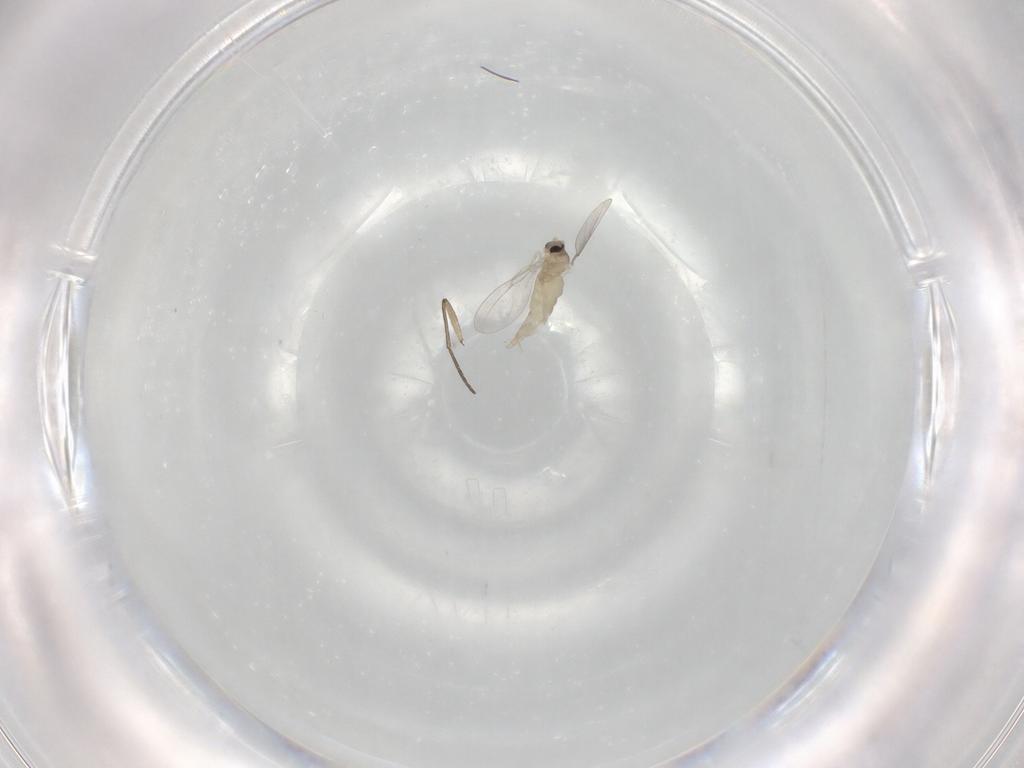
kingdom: Animalia
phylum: Arthropoda
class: Insecta
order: Diptera
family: Cecidomyiidae
